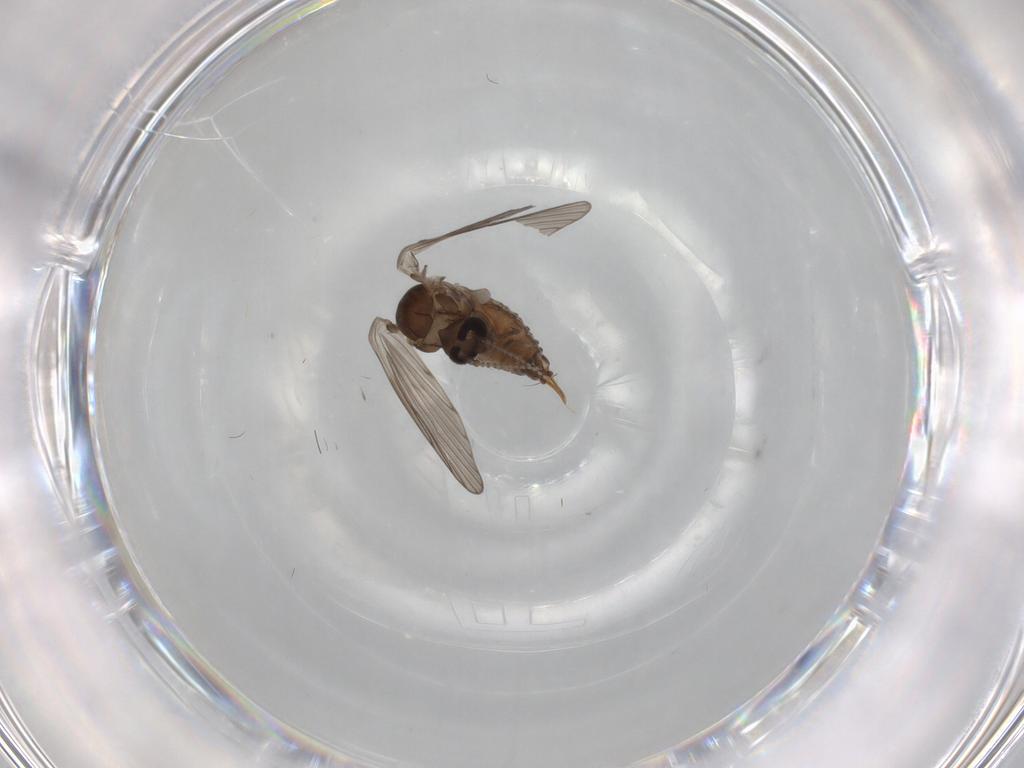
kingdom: Animalia
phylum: Arthropoda
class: Insecta
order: Diptera
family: Psychodidae
